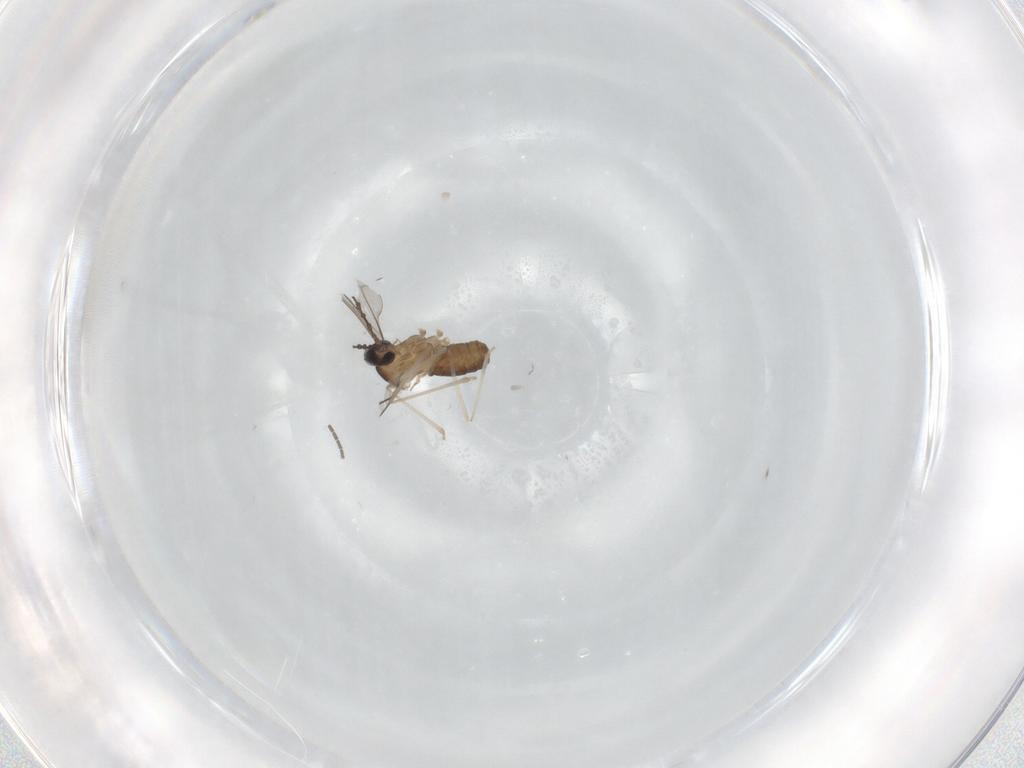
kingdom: Animalia
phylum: Arthropoda
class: Insecta
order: Diptera
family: Cecidomyiidae
